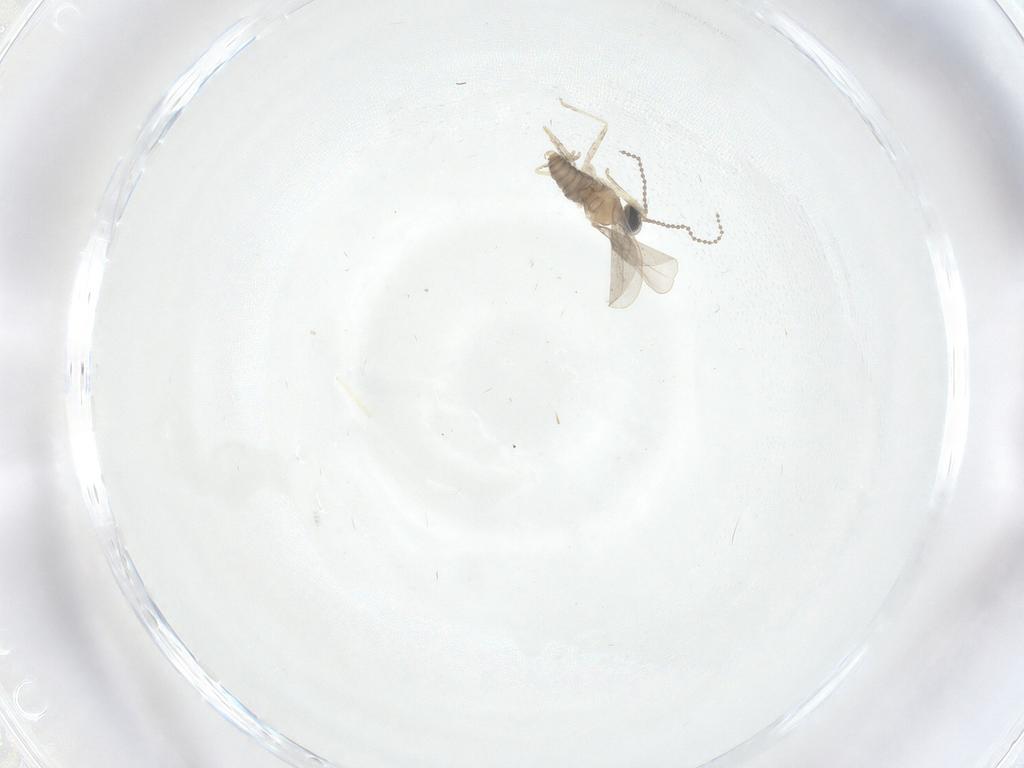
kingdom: Animalia
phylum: Arthropoda
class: Insecta
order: Diptera
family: Cecidomyiidae
